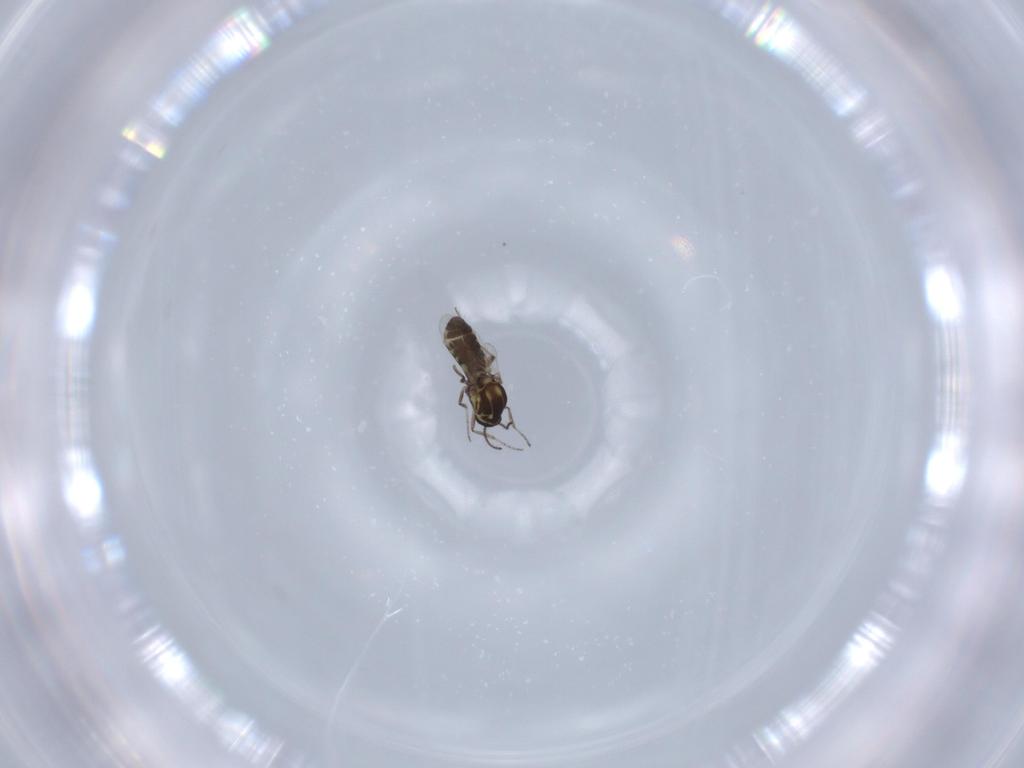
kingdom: Animalia
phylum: Arthropoda
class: Insecta
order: Diptera
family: Ceratopogonidae
